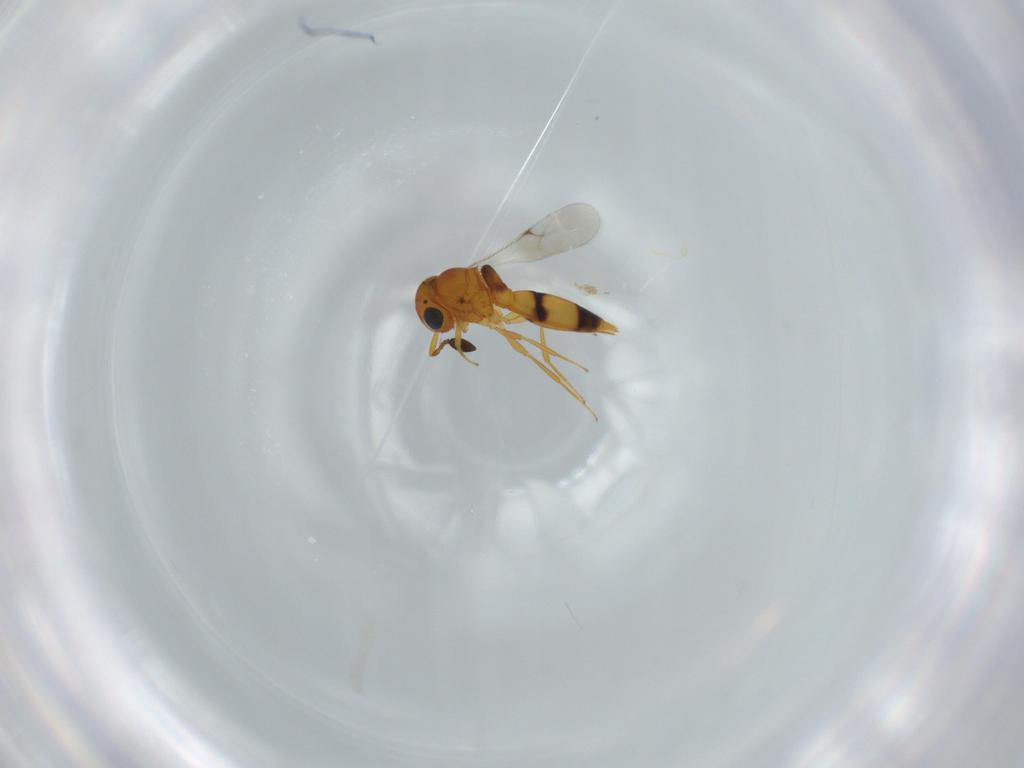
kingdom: Animalia
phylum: Arthropoda
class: Insecta
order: Hymenoptera
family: Scelionidae
